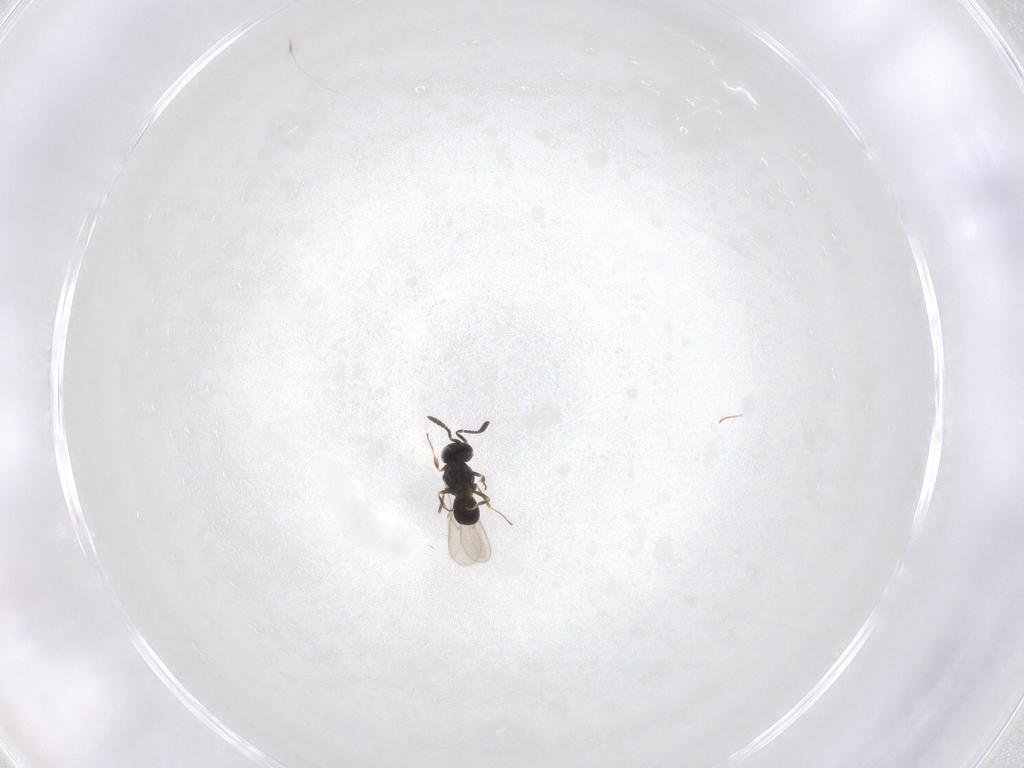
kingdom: Animalia
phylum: Arthropoda
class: Insecta
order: Hymenoptera
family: Scelionidae
